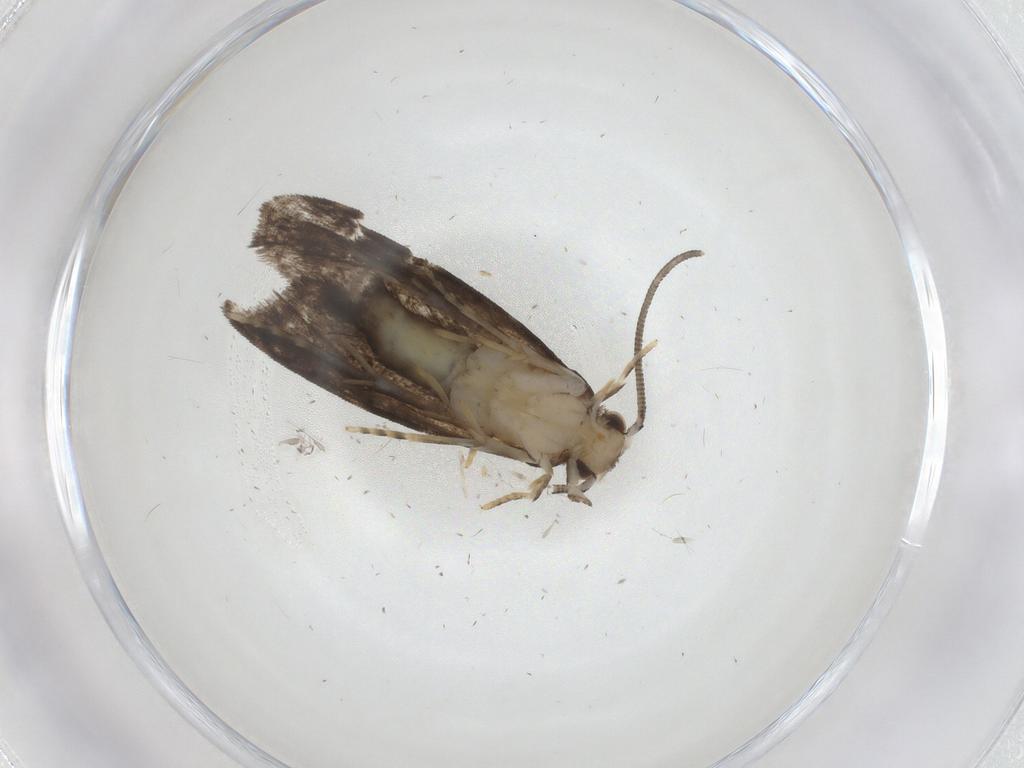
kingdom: Animalia
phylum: Arthropoda
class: Insecta
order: Lepidoptera
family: Dryadaulidae
